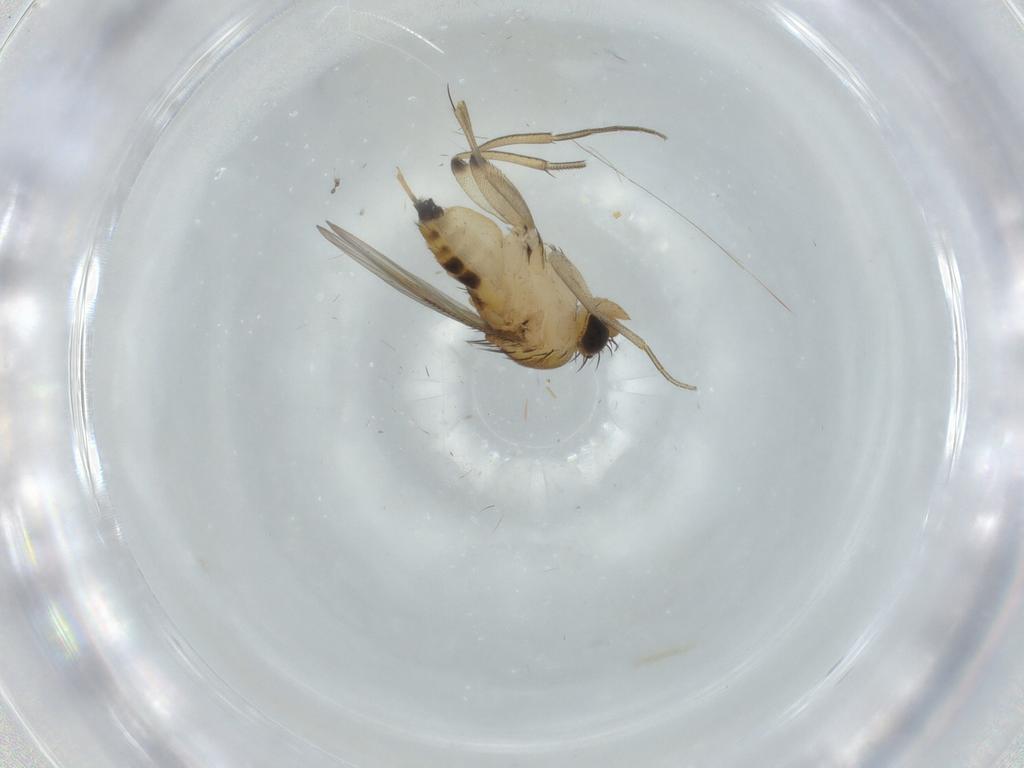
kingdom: Animalia
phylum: Arthropoda
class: Insecta
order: Diptera
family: Phoridae
